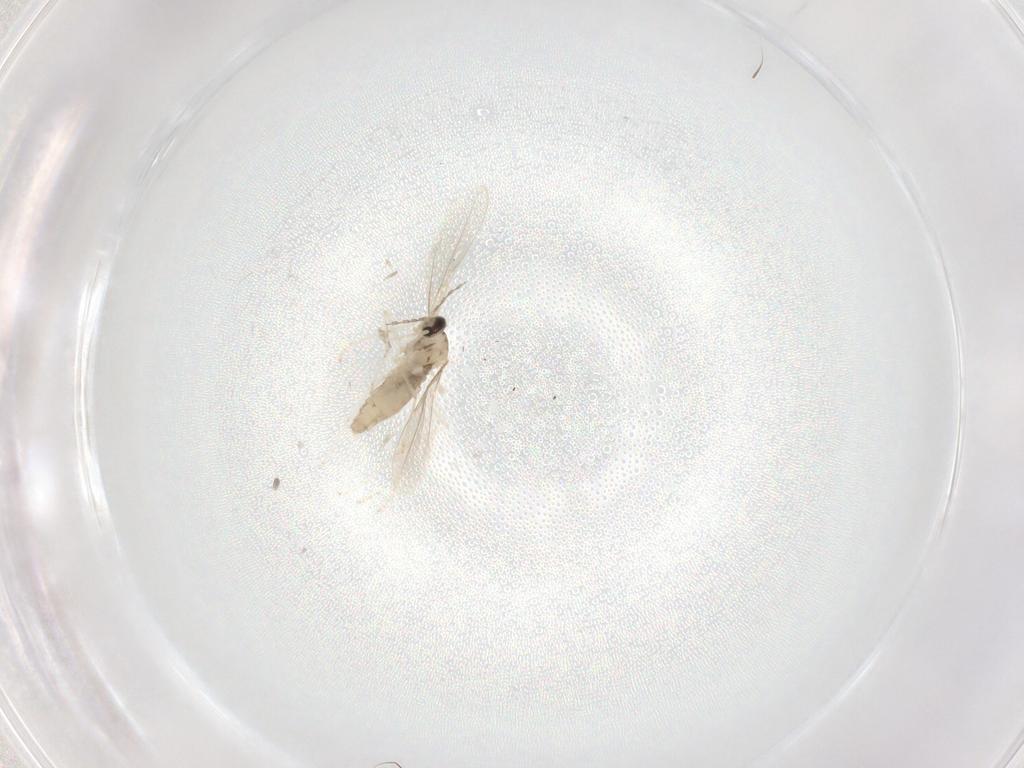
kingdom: Animalia
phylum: Arthropoda
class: Insecta
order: Diptera
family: Cecidomyiidae
